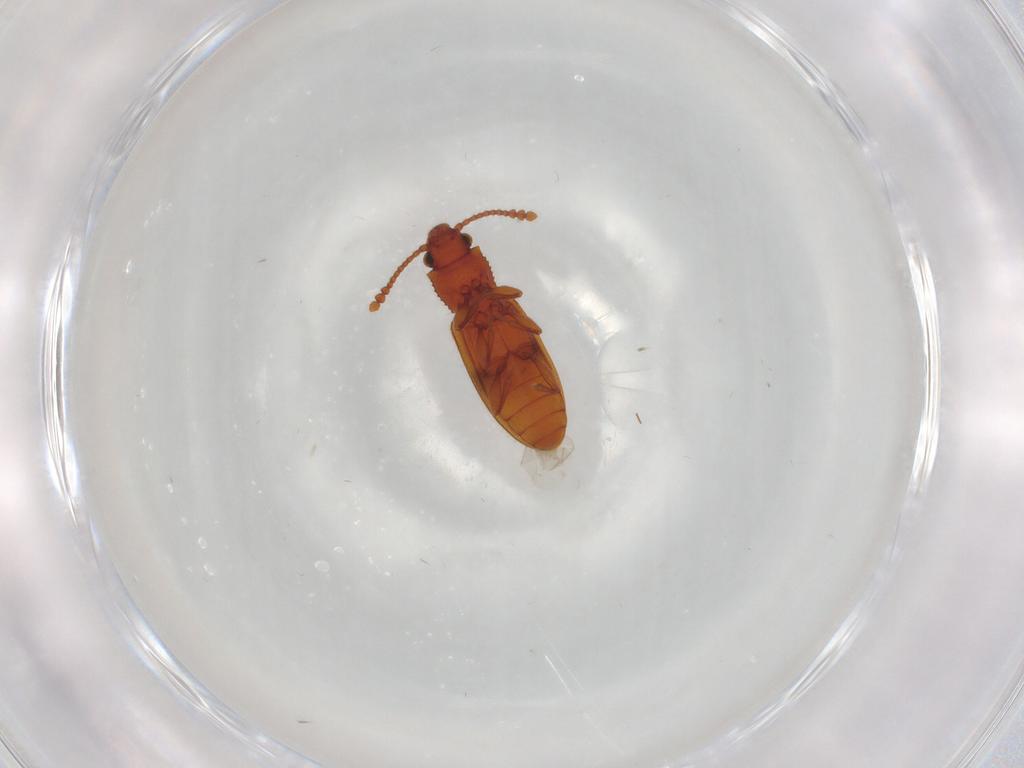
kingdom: Animalia
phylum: Arthropoda
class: Insecta
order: Coleoptera
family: Silvanidae
